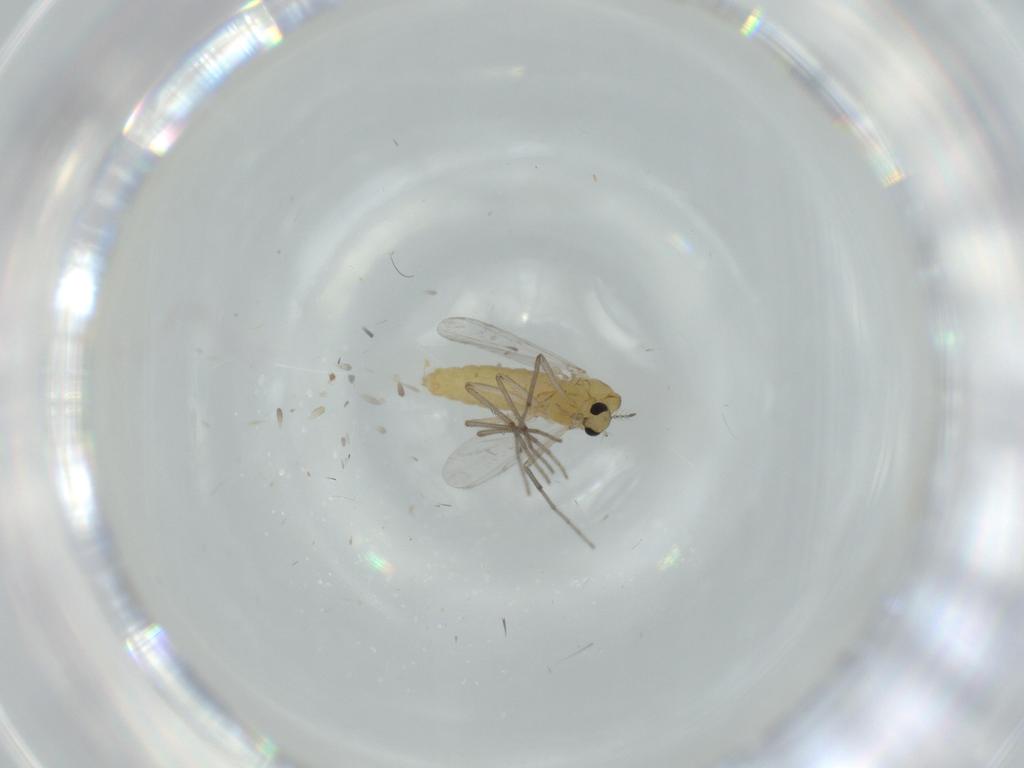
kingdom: Animalia
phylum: Arthropoda
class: Insecta
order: Diptera
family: Chironomidae
